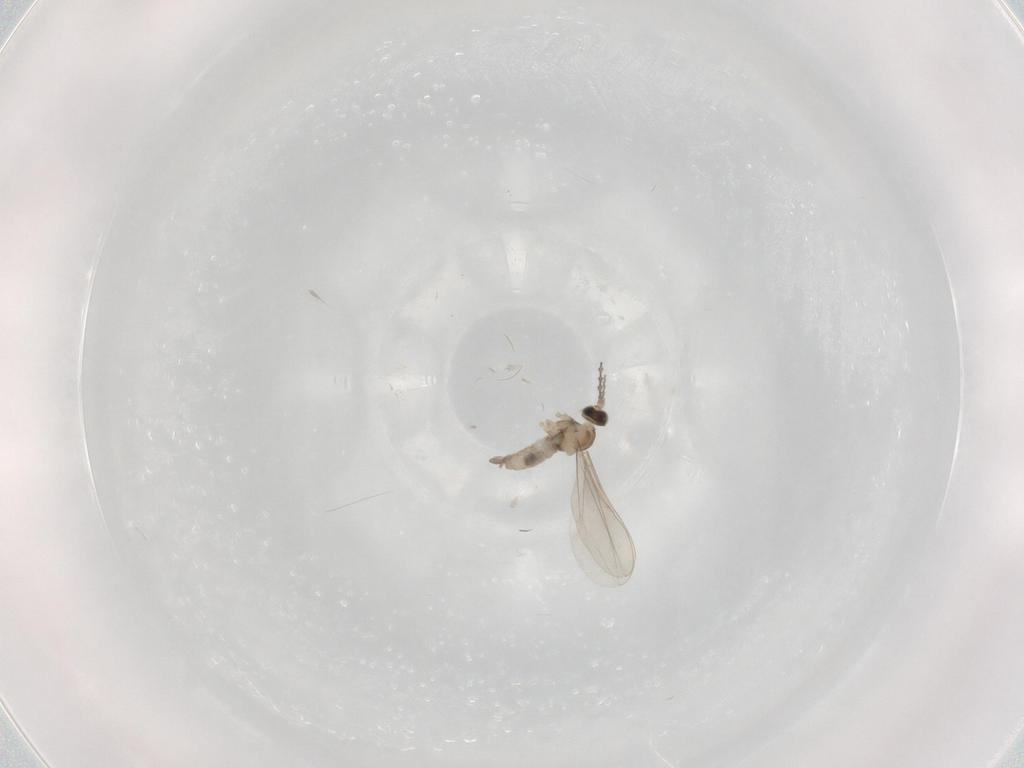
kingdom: Animalia
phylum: Arthropoda
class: Insecta
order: Diptera
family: Cecidomyiidae
